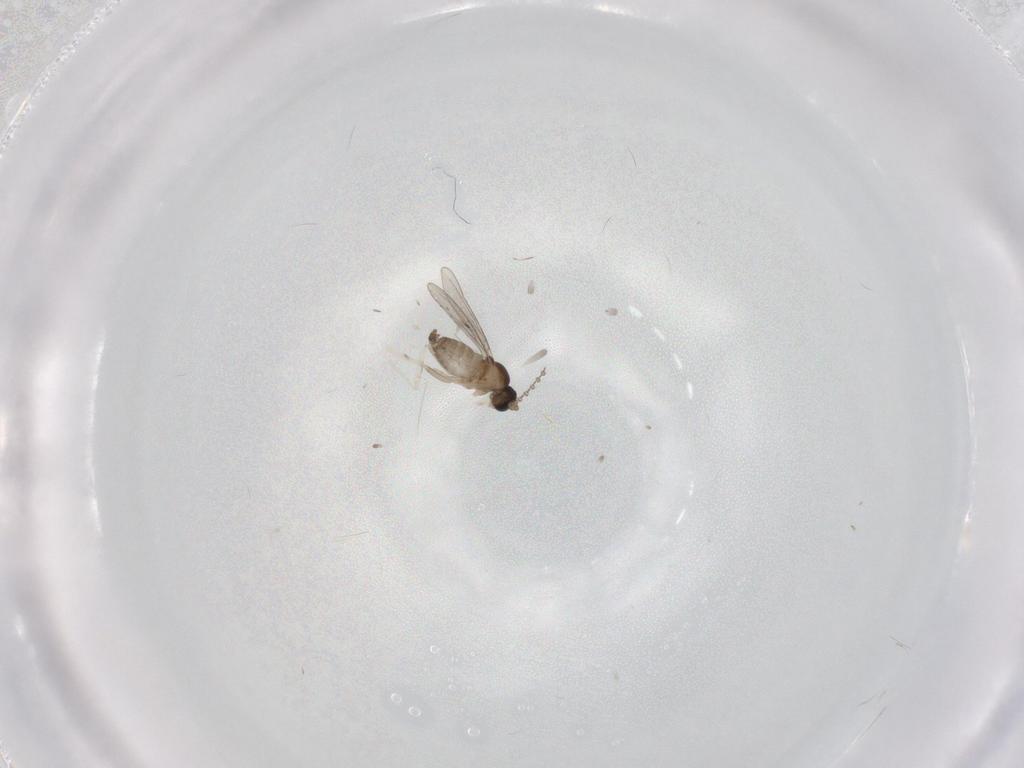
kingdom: Animalia
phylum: Arthropoda
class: Insecta
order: Diptera
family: Cecidomyiidae
